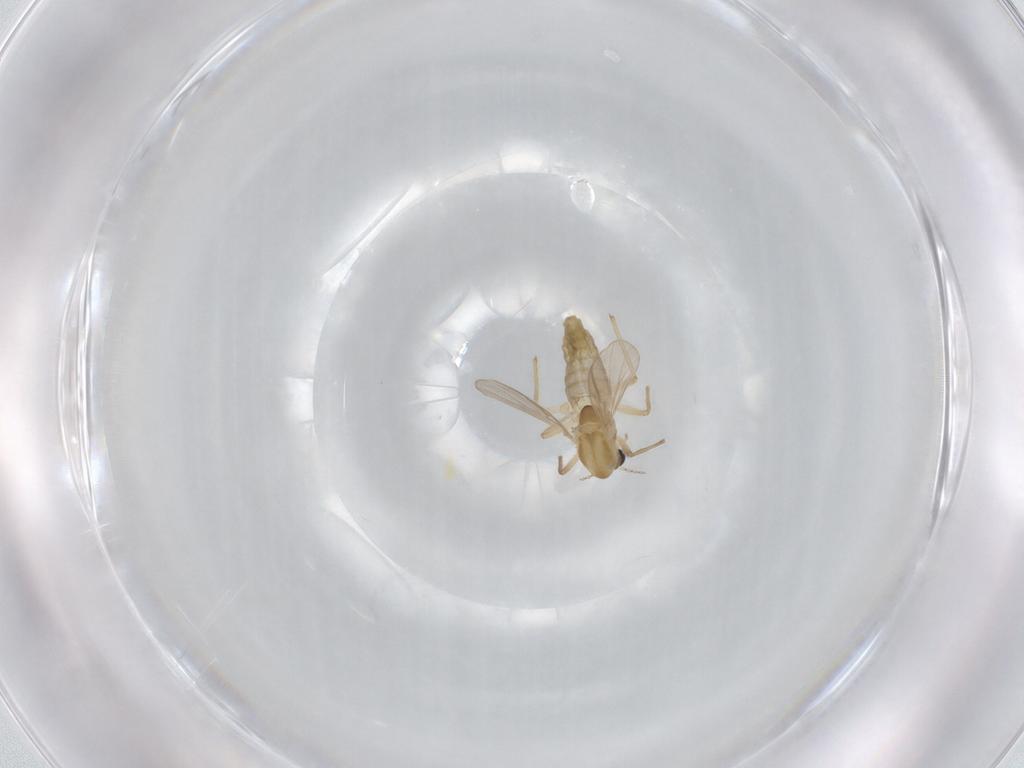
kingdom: Animalia
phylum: Arthropoda
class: Insecta
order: Diptera
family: Chironomidae
